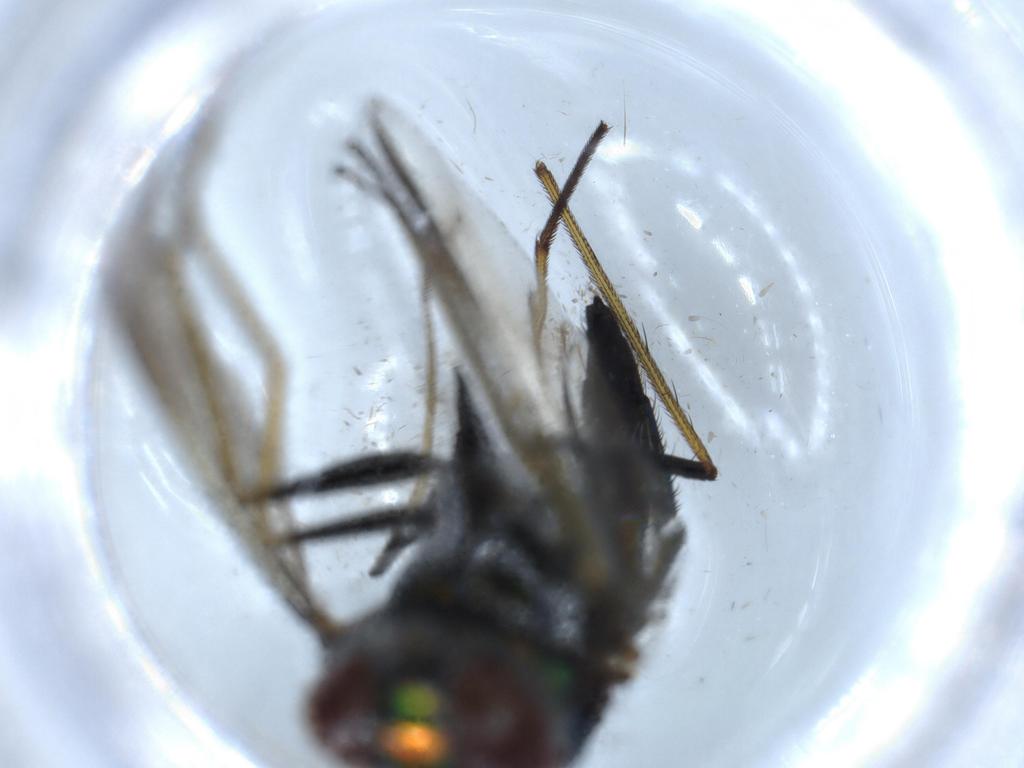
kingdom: Animalia
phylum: Arthropoda
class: Insecta
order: Diptera
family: Dolichopodidae
